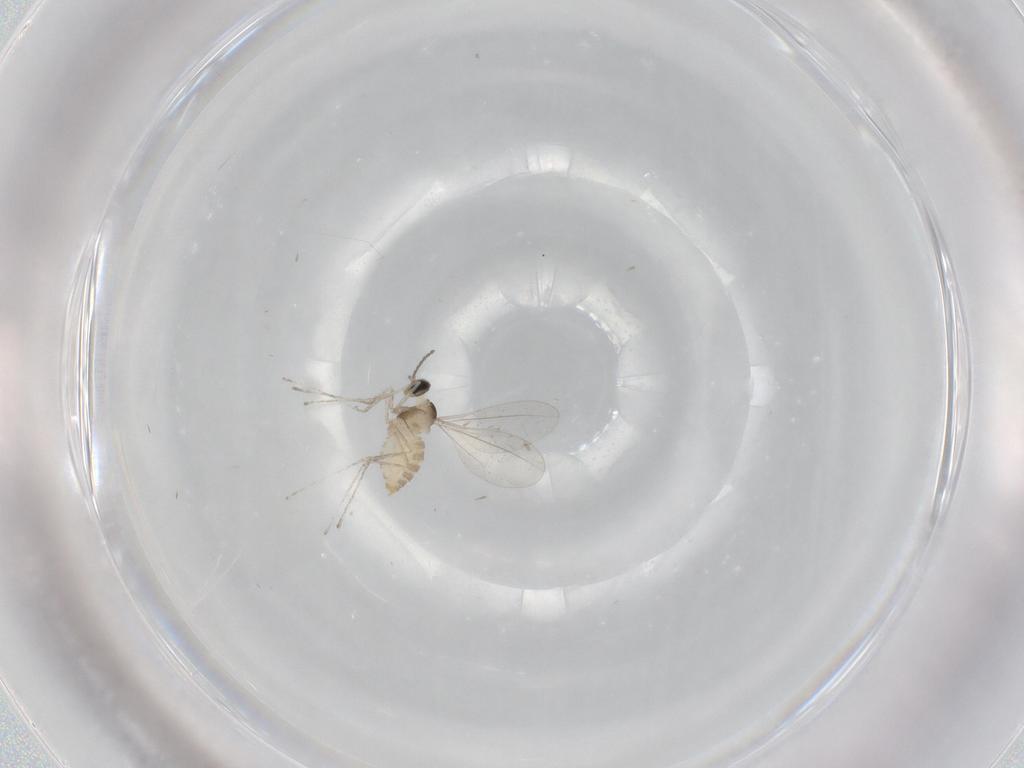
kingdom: Animalia
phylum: Arthropoda
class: Insecta
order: Diptera
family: Cecidomyiidae
